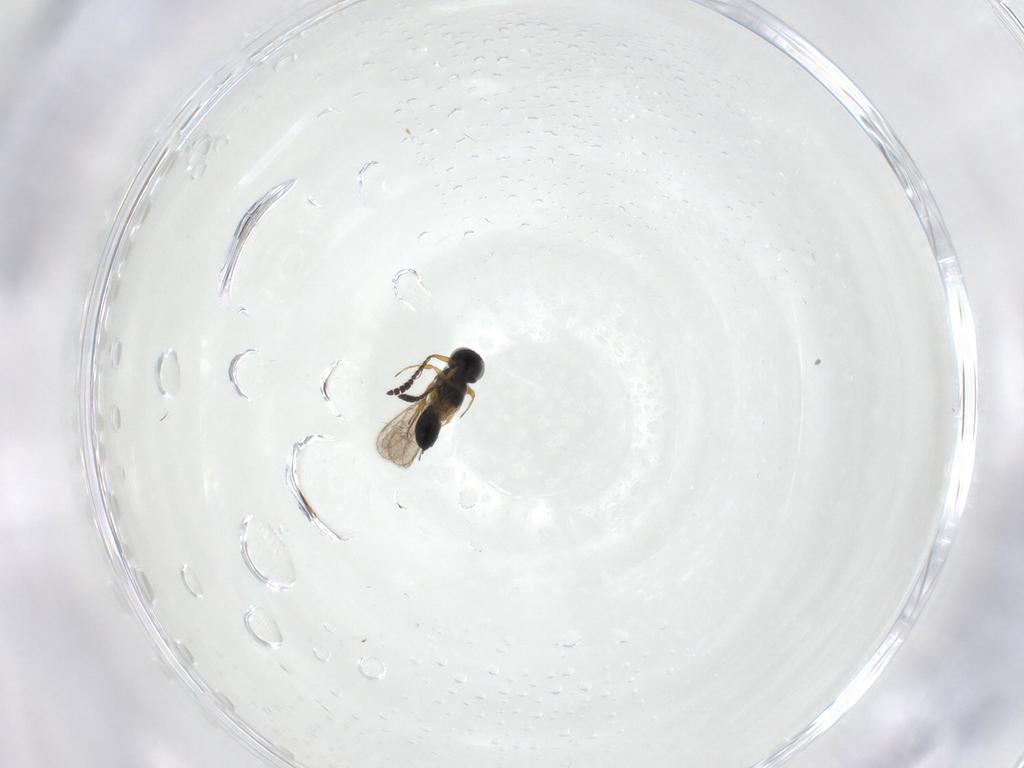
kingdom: Animalia
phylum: Arthropoda
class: Insecta
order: Hymenoptera
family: Scelionidae
